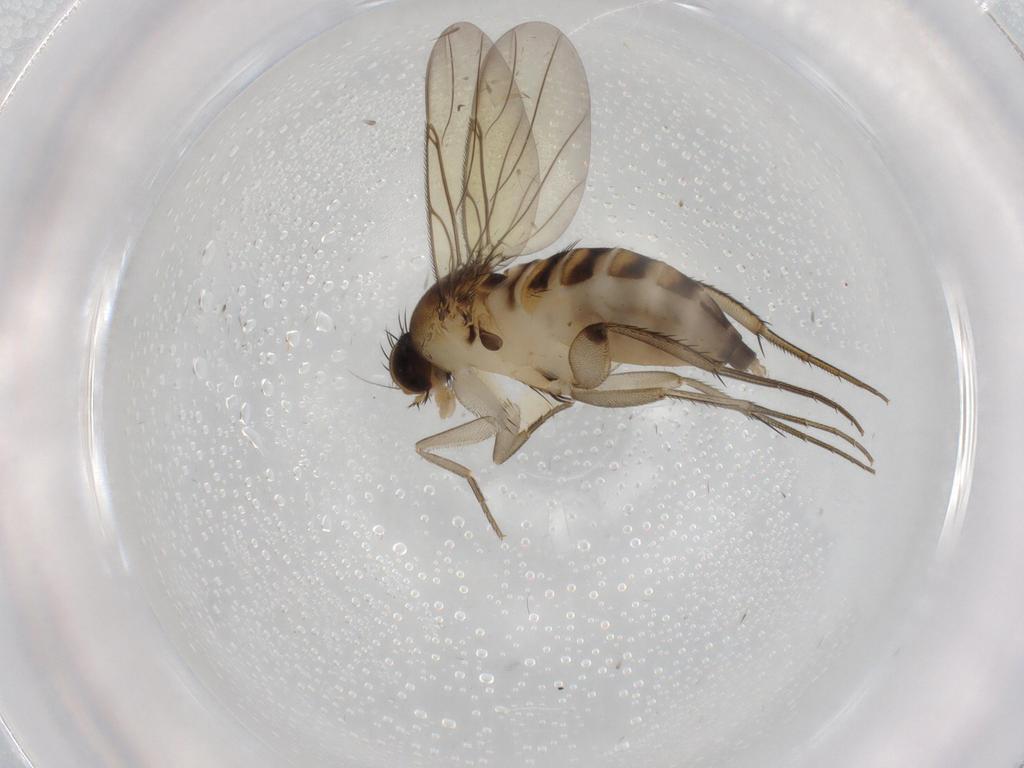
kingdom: Animalia
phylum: Arthropoda
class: Insecta
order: Diptera
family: Phoridae
